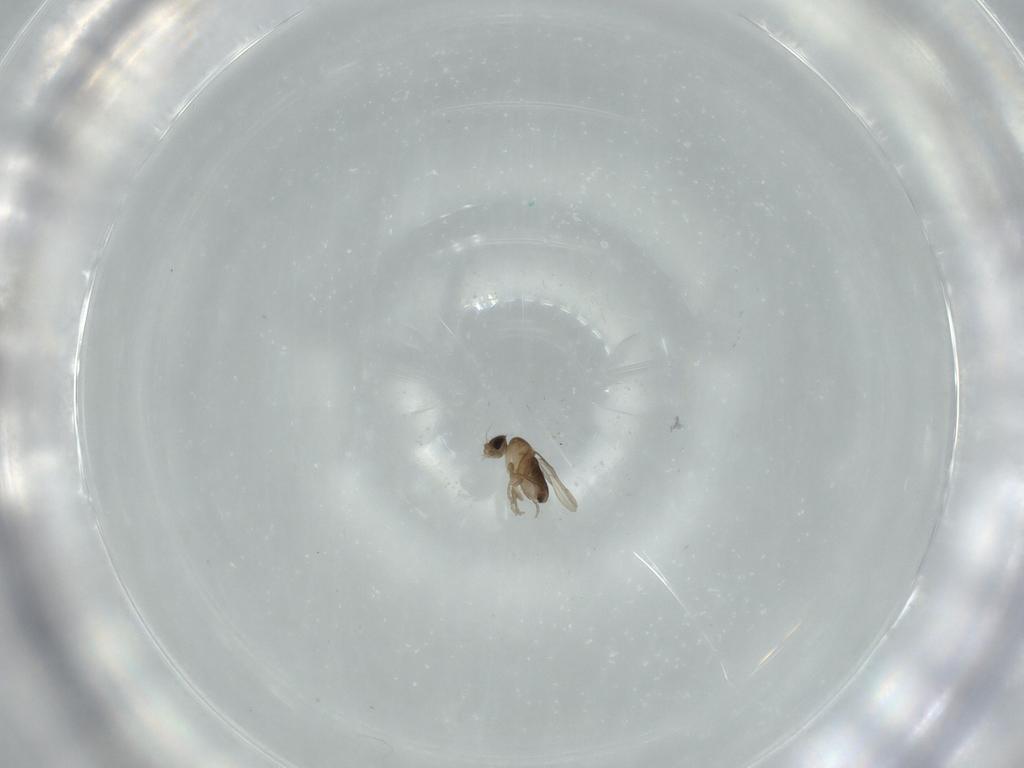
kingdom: Animalia
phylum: Arthropoda
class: Insecta
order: Diptera
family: Phoridae
